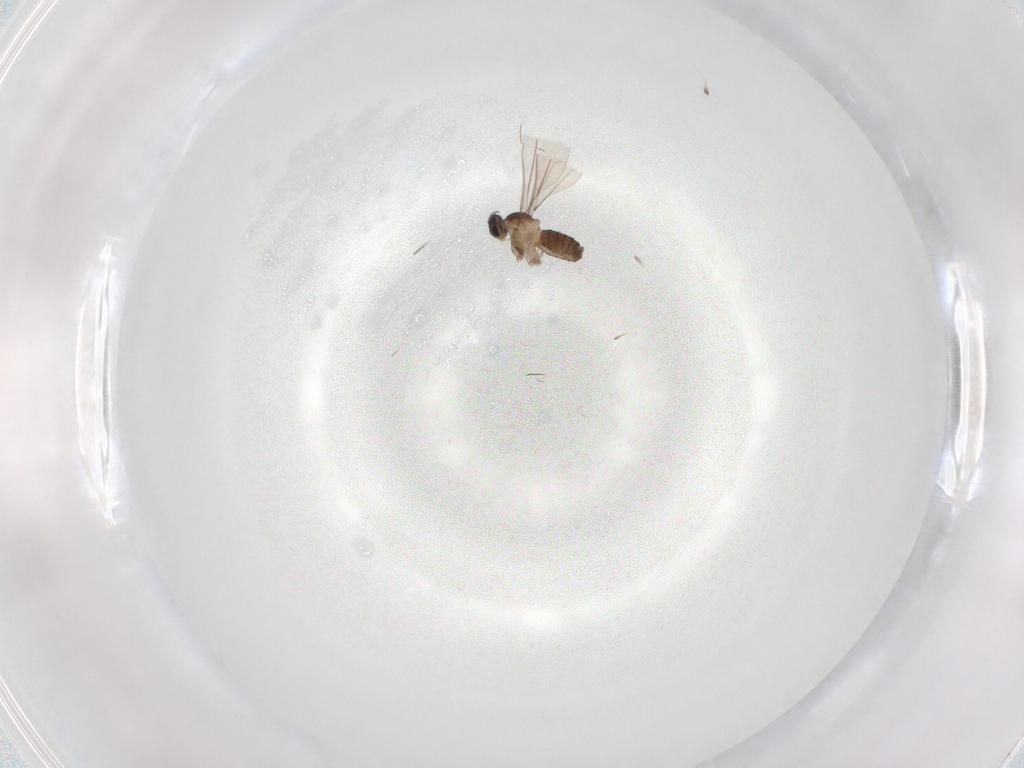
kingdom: Animalia
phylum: Arthropoda
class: Insecta
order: Diptera
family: Cecidomyiidae
